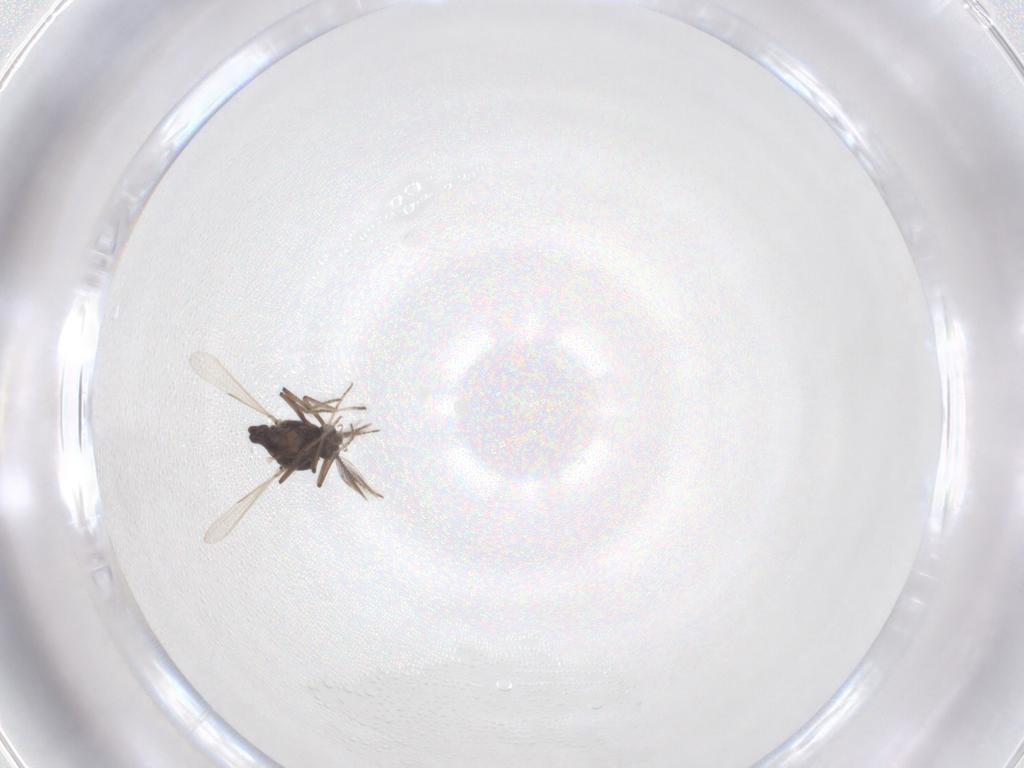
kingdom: Animalia
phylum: Arthropoda
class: Insecta
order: Diptera
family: Ceratopogonidae
